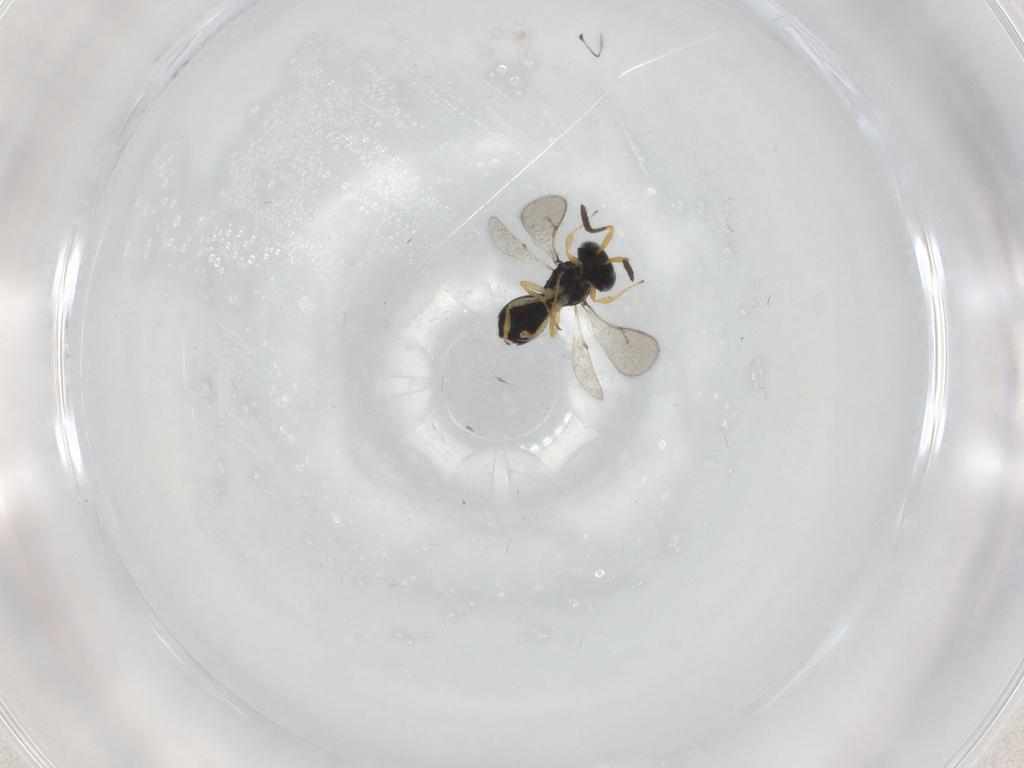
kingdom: Animalia
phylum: Arthropoda
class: Insecta
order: Hymenoptera
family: Scelionidae
